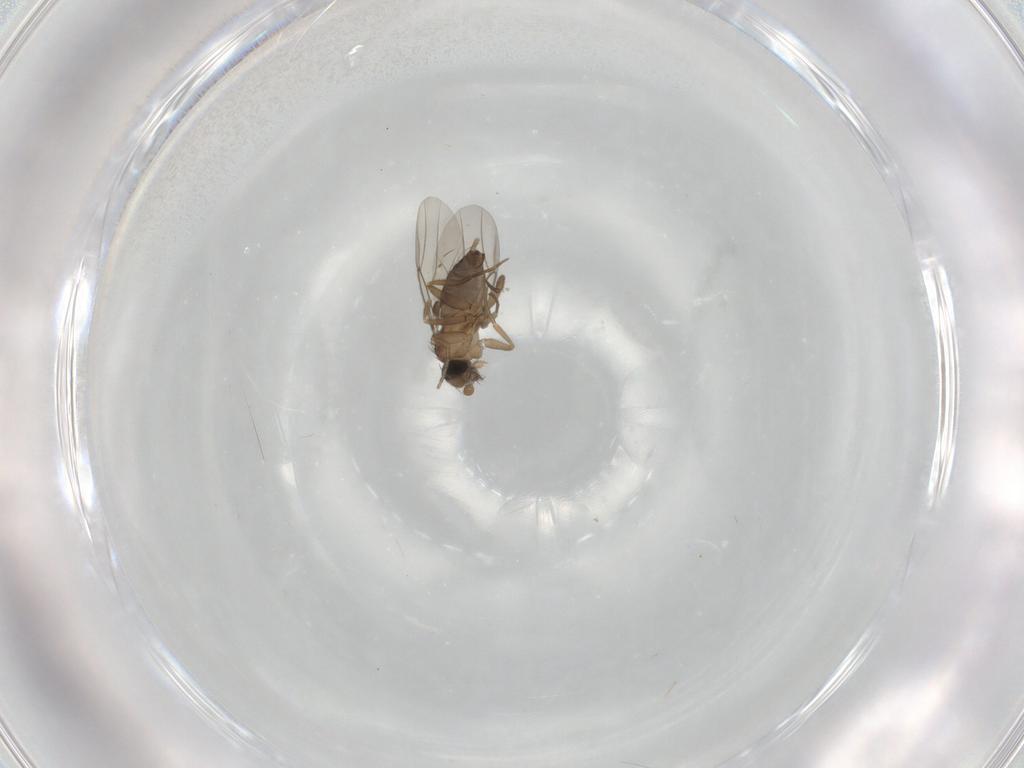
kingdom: Animalia
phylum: Arthropoda
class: Insecta
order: Diptera
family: Phoridae
